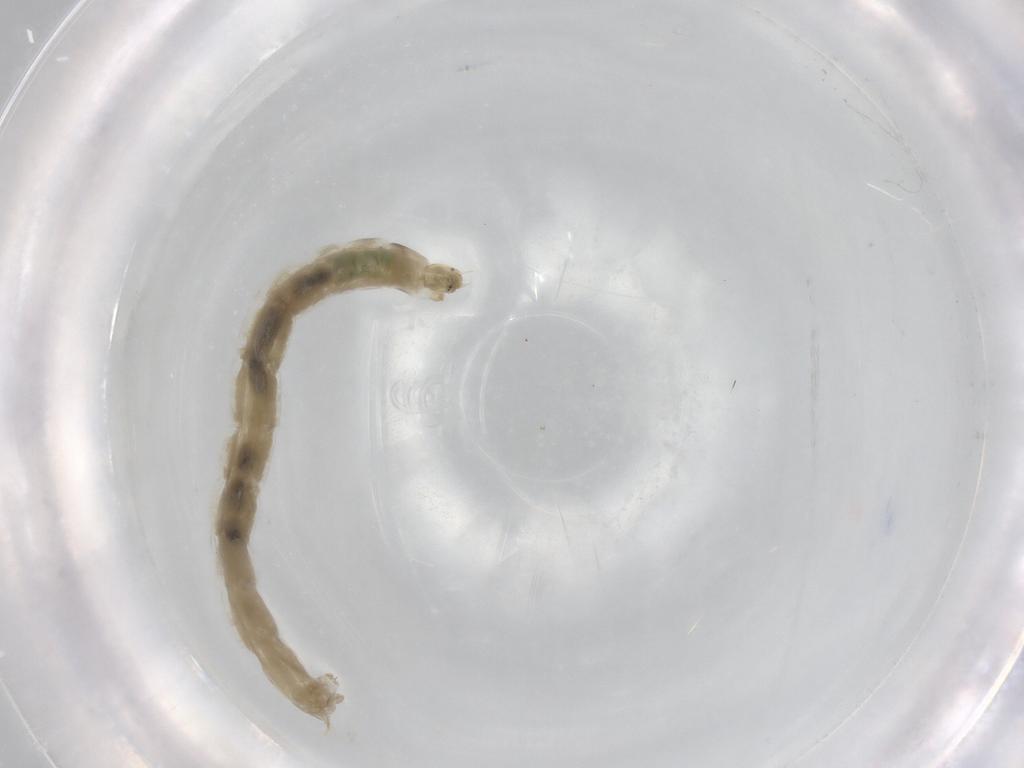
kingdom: Animalia
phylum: Arthropoda
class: Insecta
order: Diptera
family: Chironomidae
